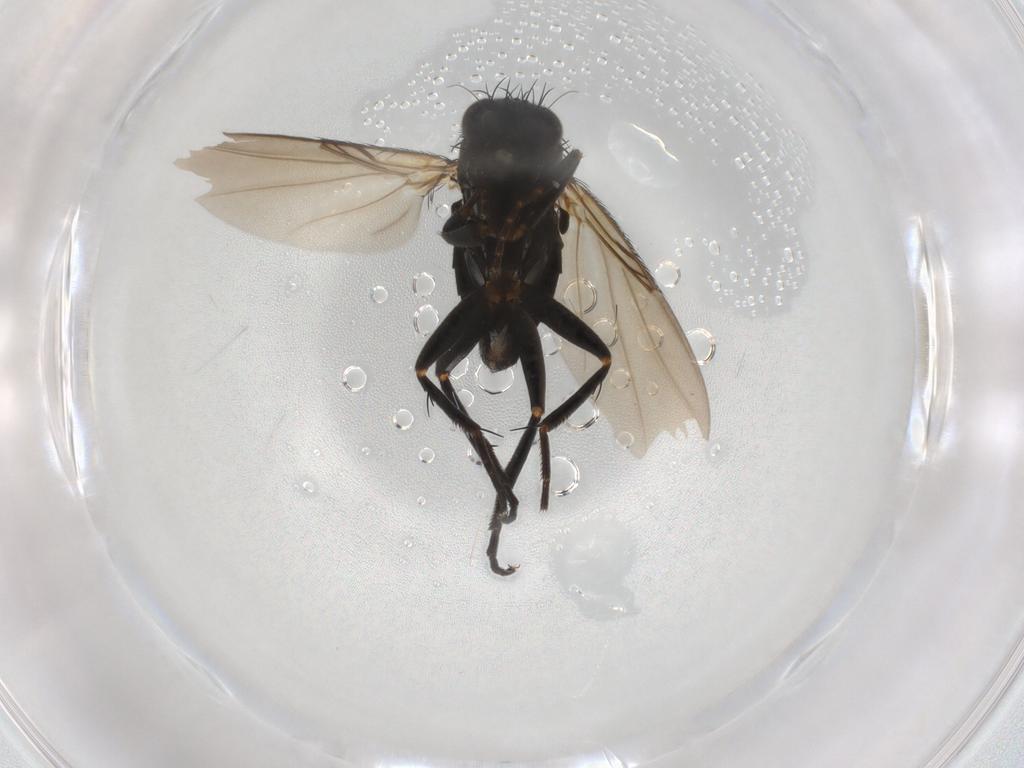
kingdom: Animalia
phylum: Arthropoda
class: Insecta
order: Diptera
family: Phoridae
